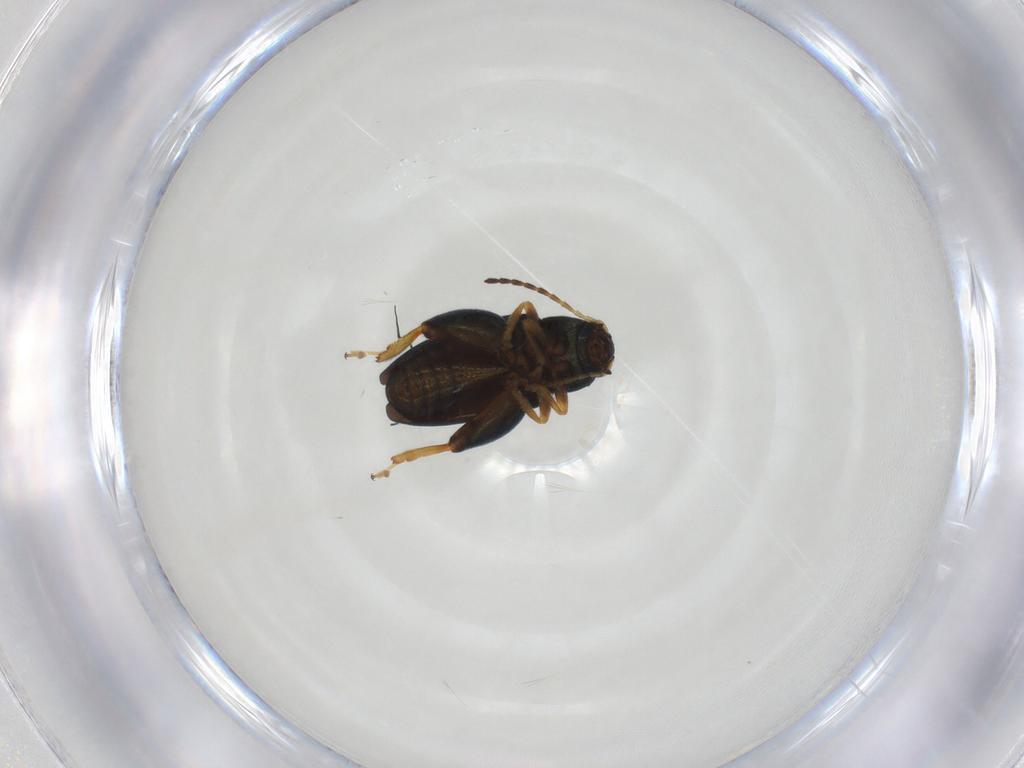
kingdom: Animalia
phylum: Arthropoda
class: Insecta
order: Coleoptera
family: Chrysomelidae
